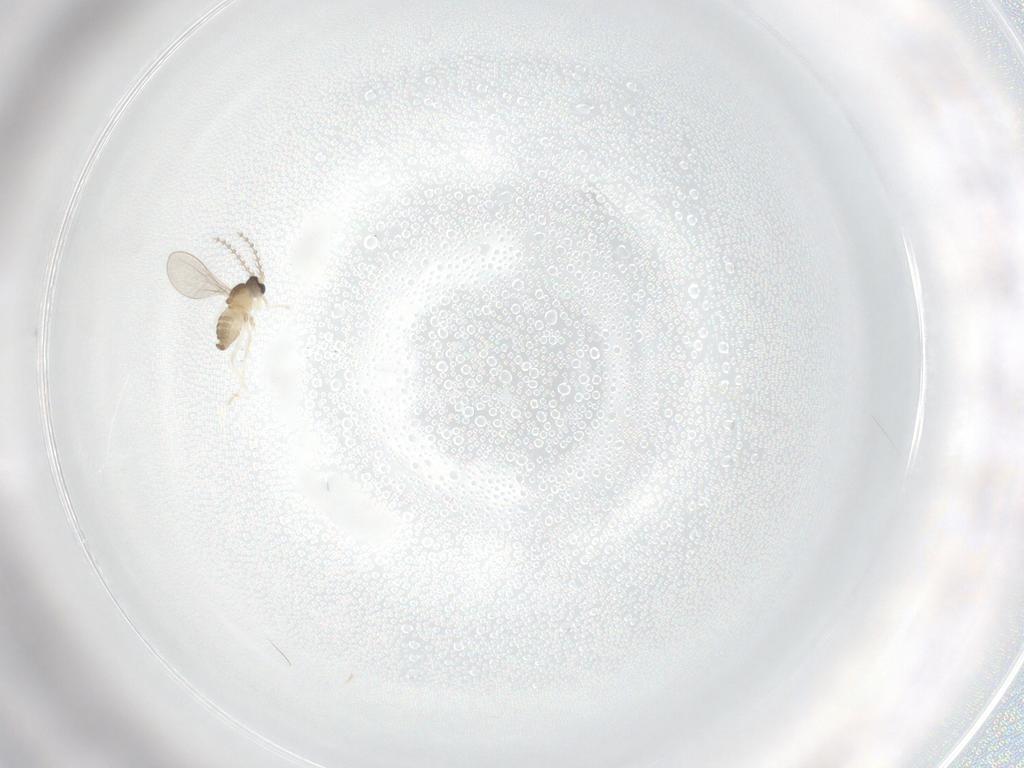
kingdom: Animalia
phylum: Arthropoda
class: Insecta
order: Diptera
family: Cecidomyiidae
